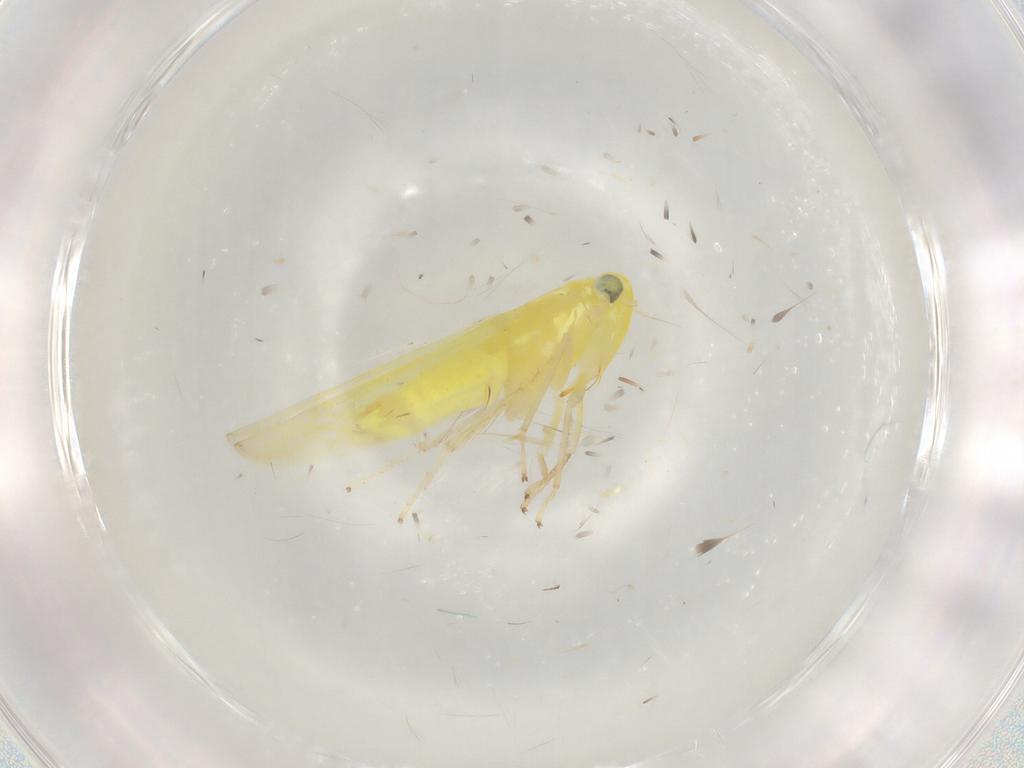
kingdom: Animalia
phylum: Arthropoda
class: Insecta
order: Hemiptera
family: Cicadellidae
